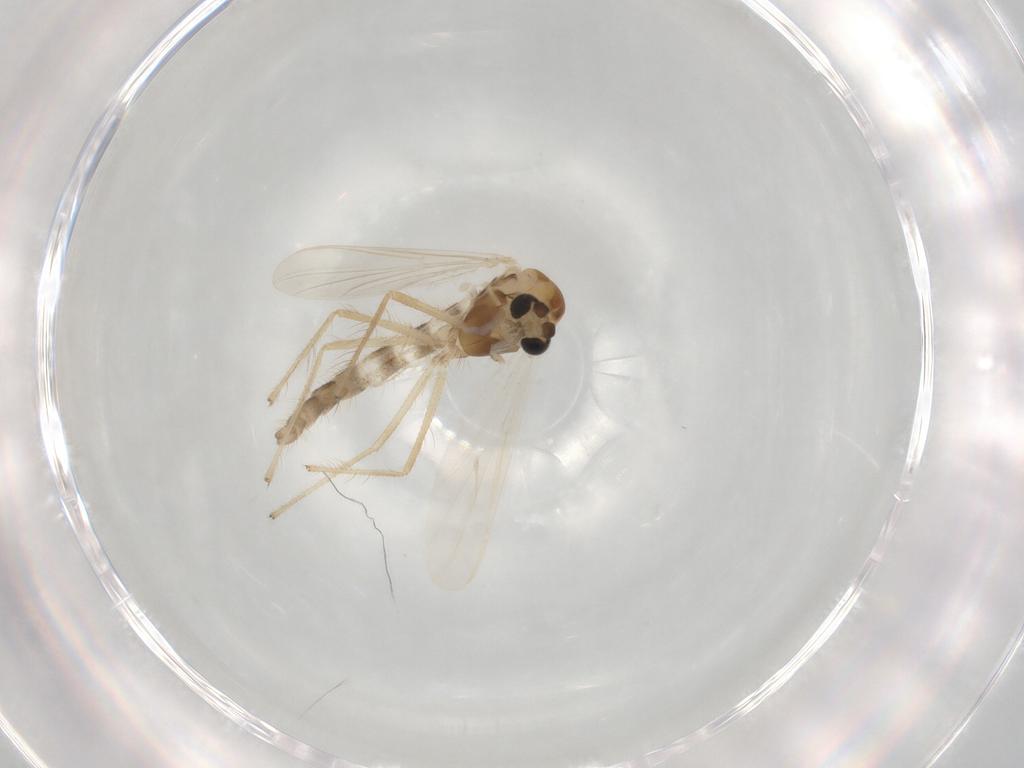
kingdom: Animalia
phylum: Arthropoda
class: Insecta
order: Diptera
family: Chironomidae
